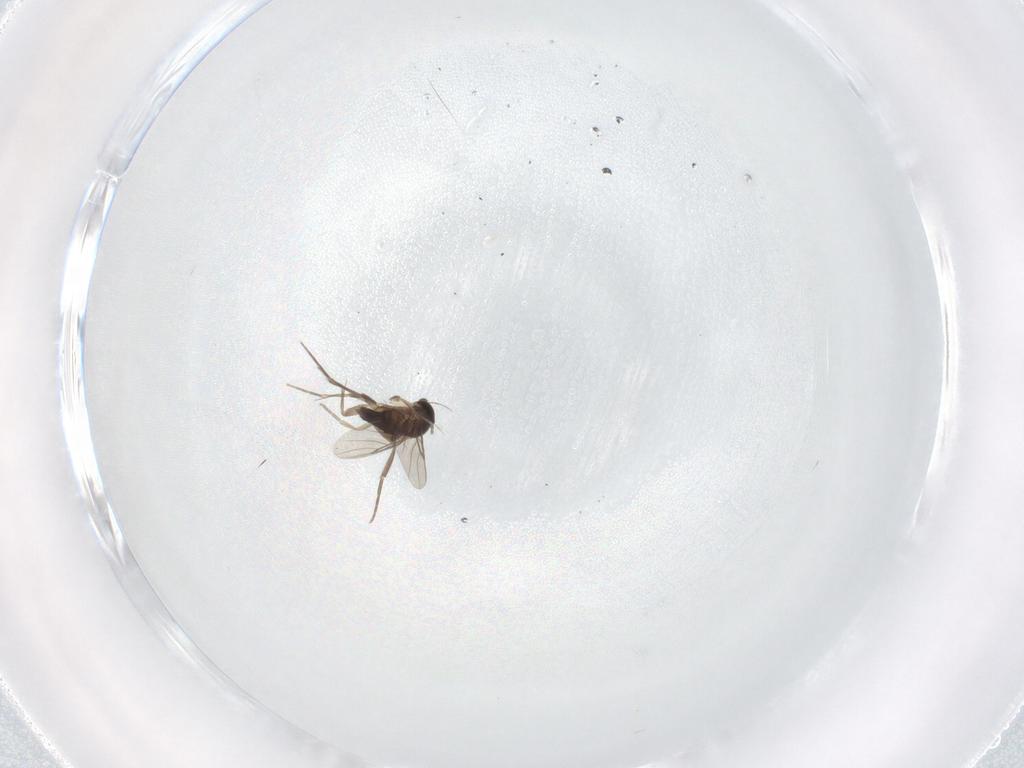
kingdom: Animalia
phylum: Arthropoda
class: Insecta
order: Diptera
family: Phoridae
